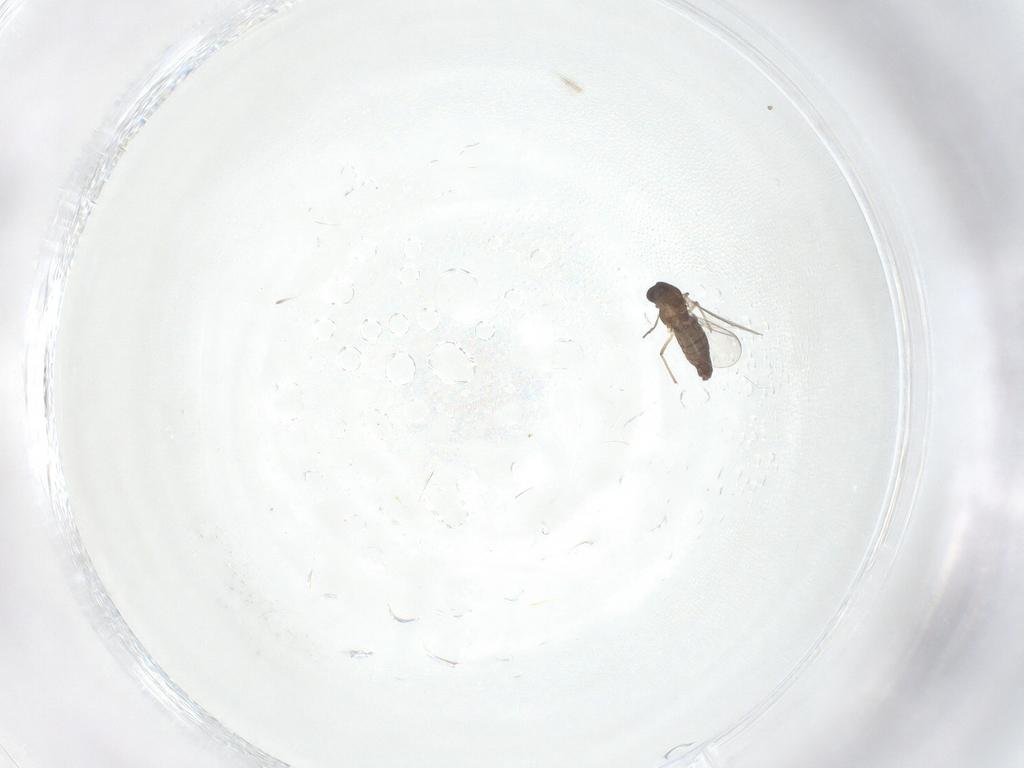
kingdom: Animalia
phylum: Arthropoda
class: Insecta
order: Diptera
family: Chironomidae
